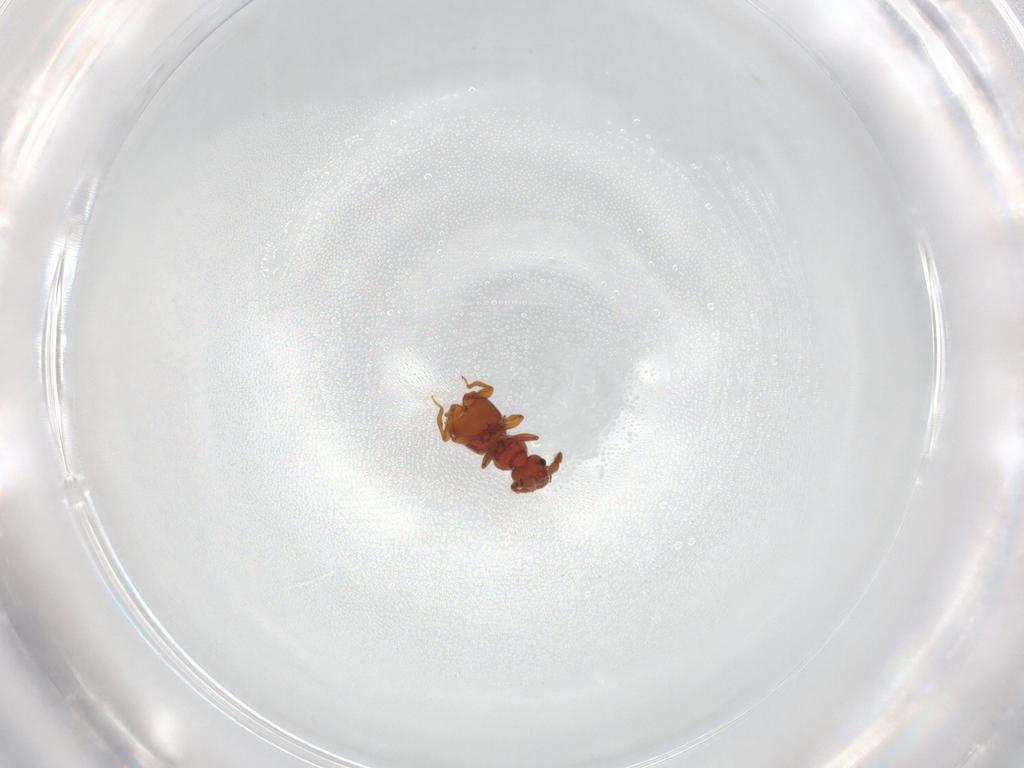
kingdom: Animalia
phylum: Arthropoda
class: Insecta
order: Coleoptera
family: Staphylinidae
